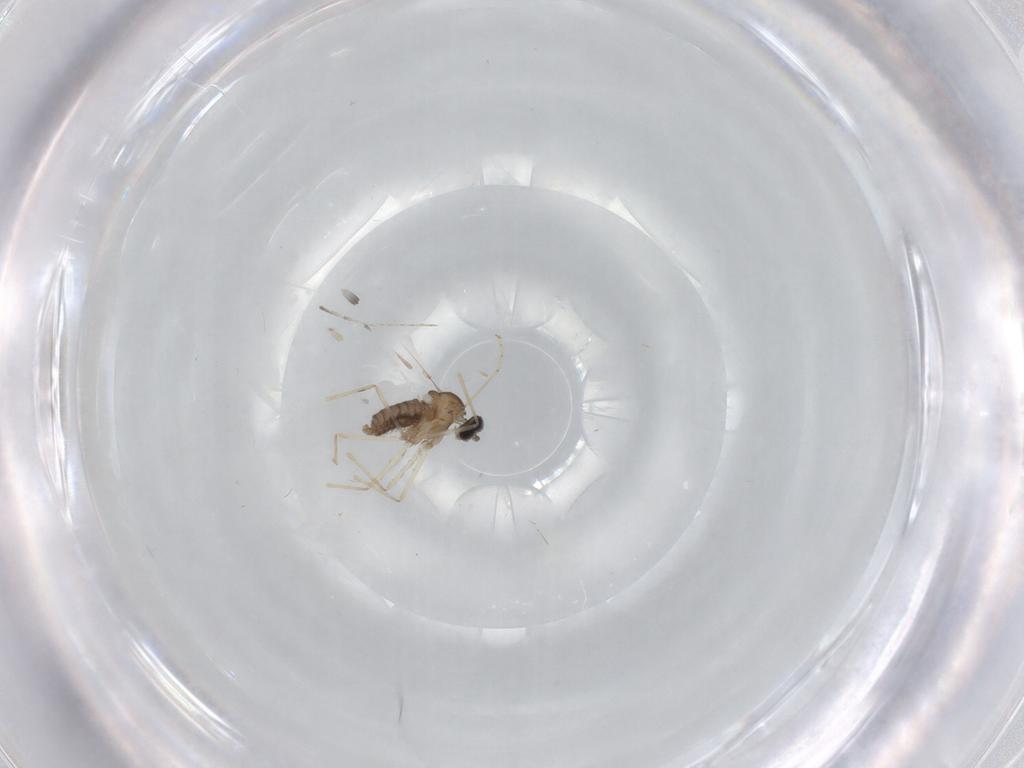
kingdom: Animalia
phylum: Arthropoda
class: Insecta
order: Diptera
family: Cecidomyiidae
